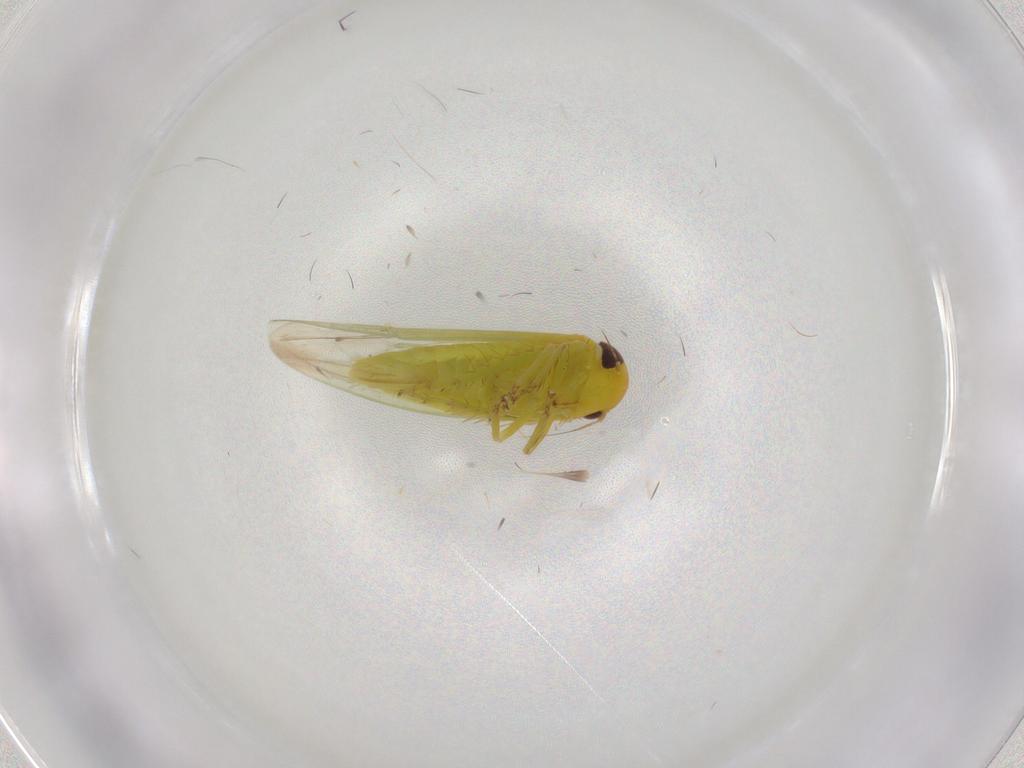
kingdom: Animalia
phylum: Arthropoda
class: Insecta
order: Hemiptera
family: Cicadellidae
